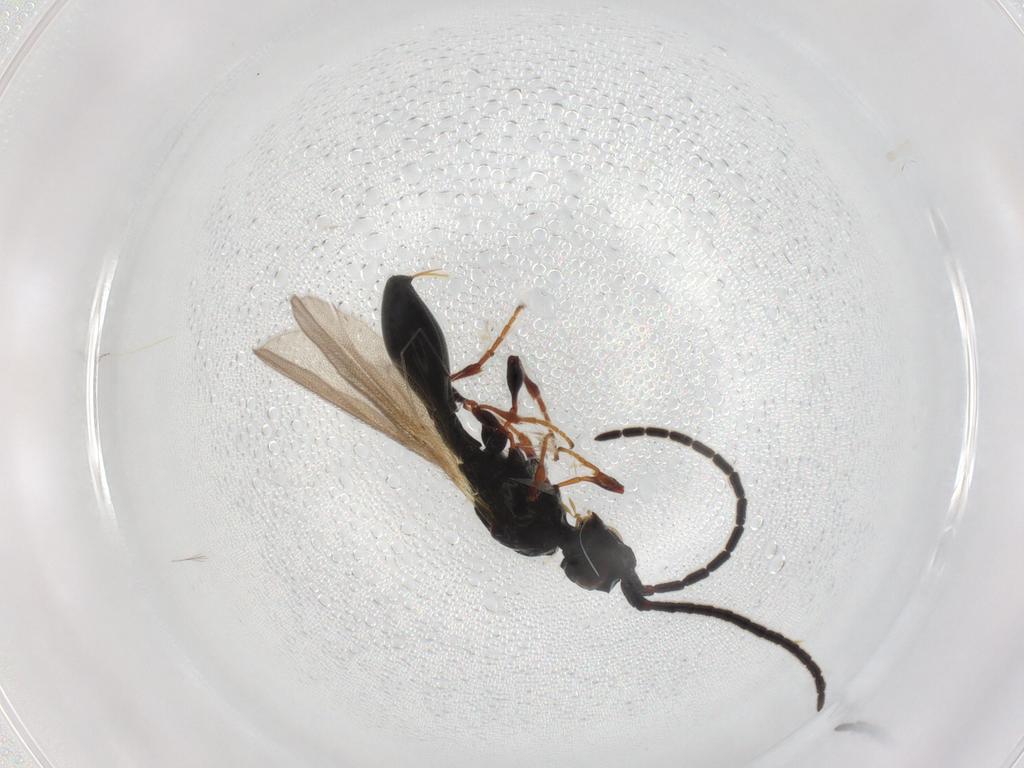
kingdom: Animalia
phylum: Arthropoda
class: Insecta
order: Hymenoptera
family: Diapriidae
